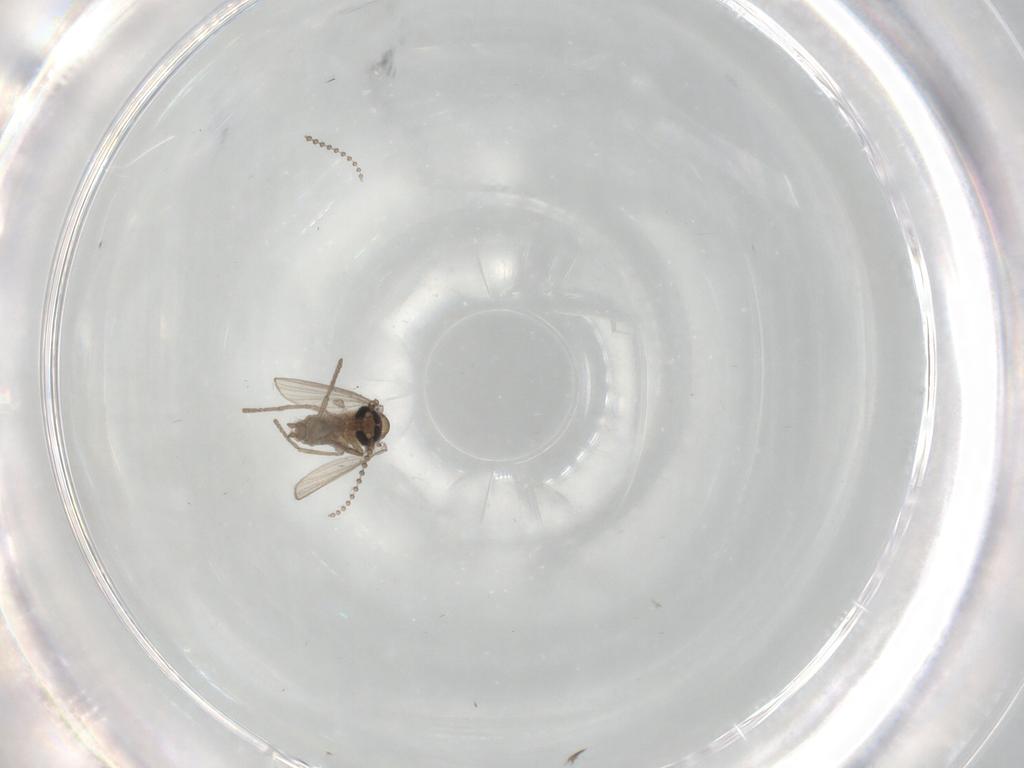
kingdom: Animalia
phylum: Arthropoda
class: Insecta
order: Diptera
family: Psychodidae
